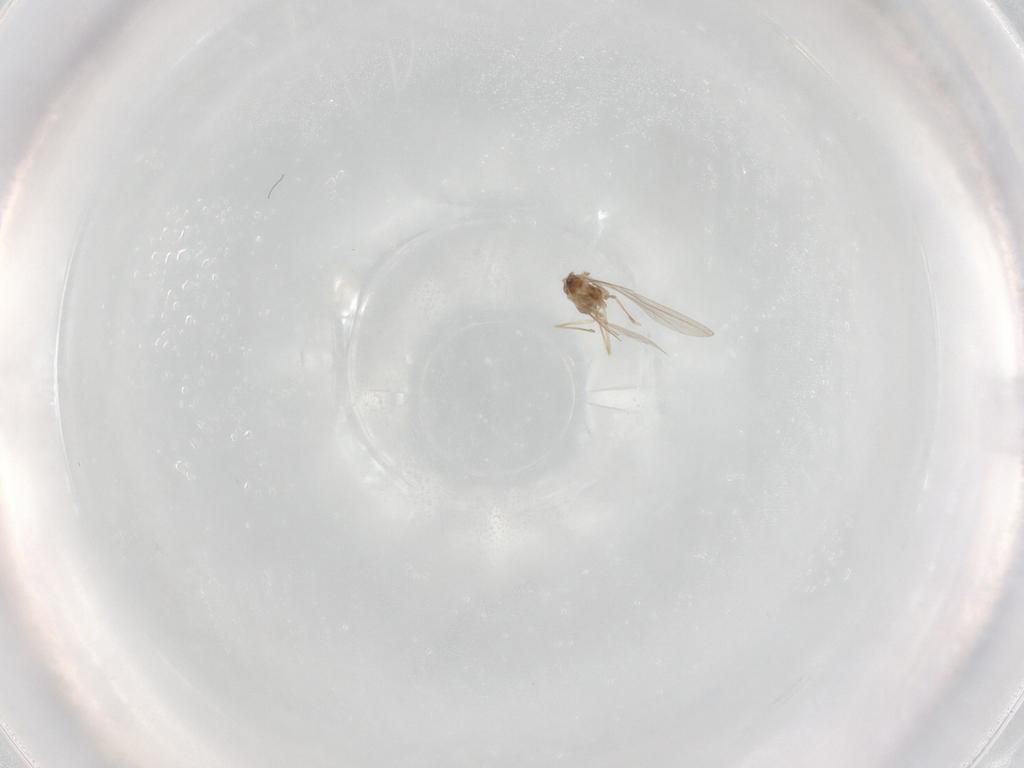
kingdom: Animalia
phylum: Arthropoda
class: Insecta
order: Diptera
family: Cecidomyiidae
